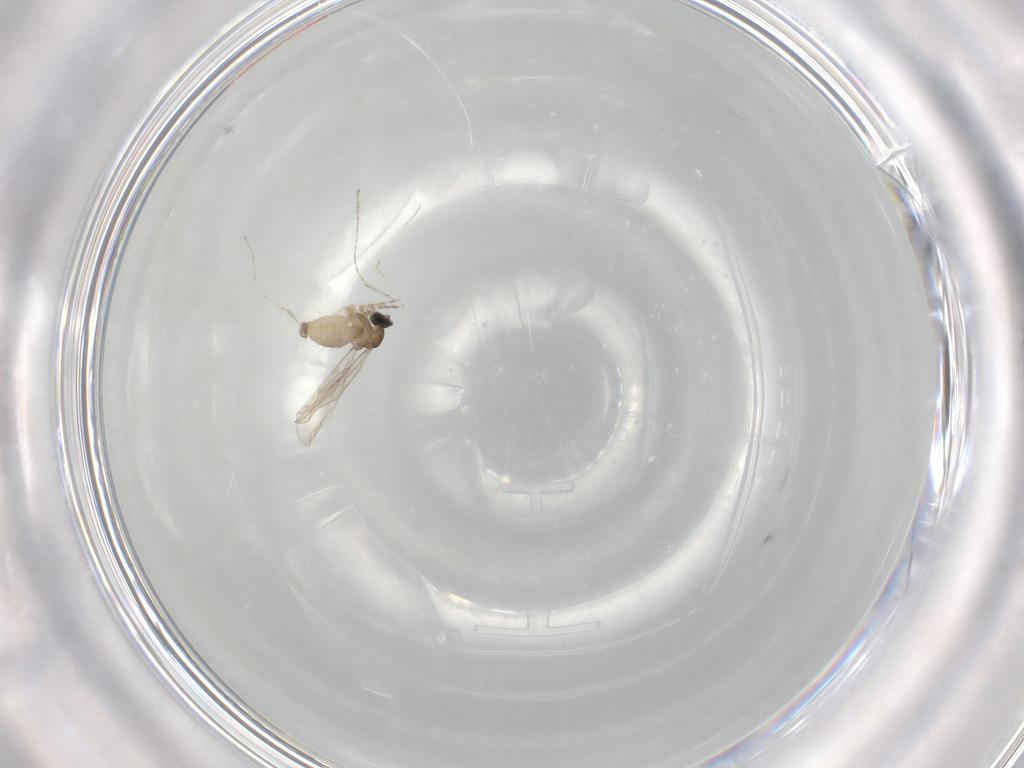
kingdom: Animalia
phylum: Arthropoda
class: Insecta
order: Diptera
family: Cecidomyiidae
